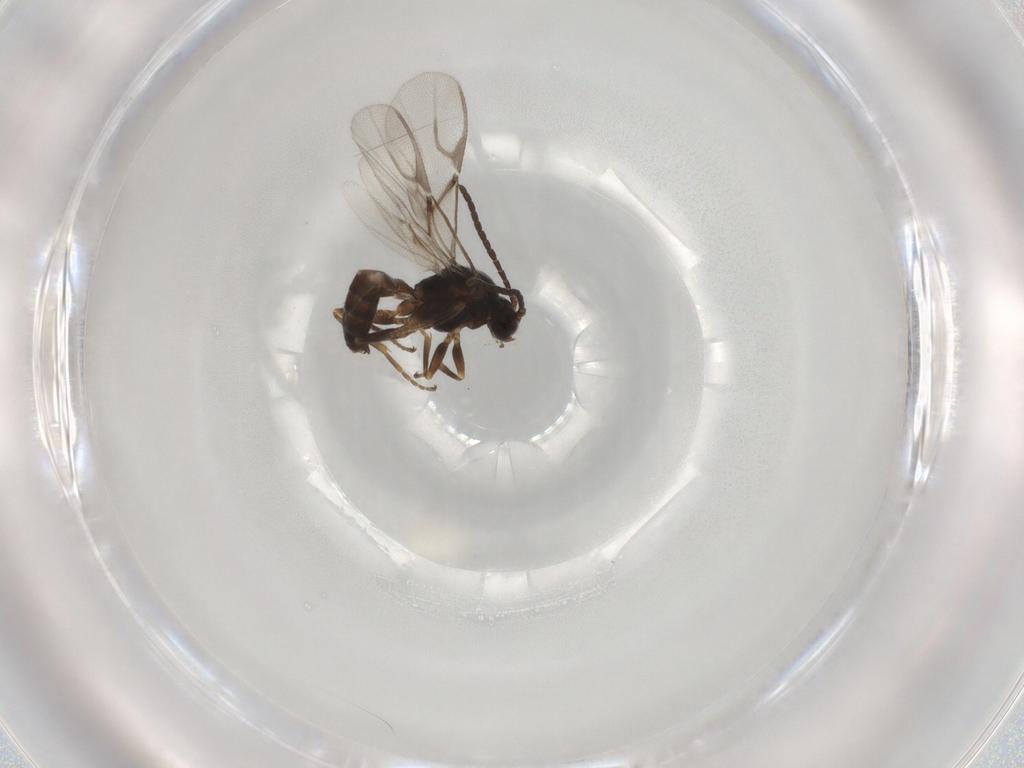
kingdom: Animalia
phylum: Arthropoda
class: Insecta
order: Hymenoptera
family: Braconidae
